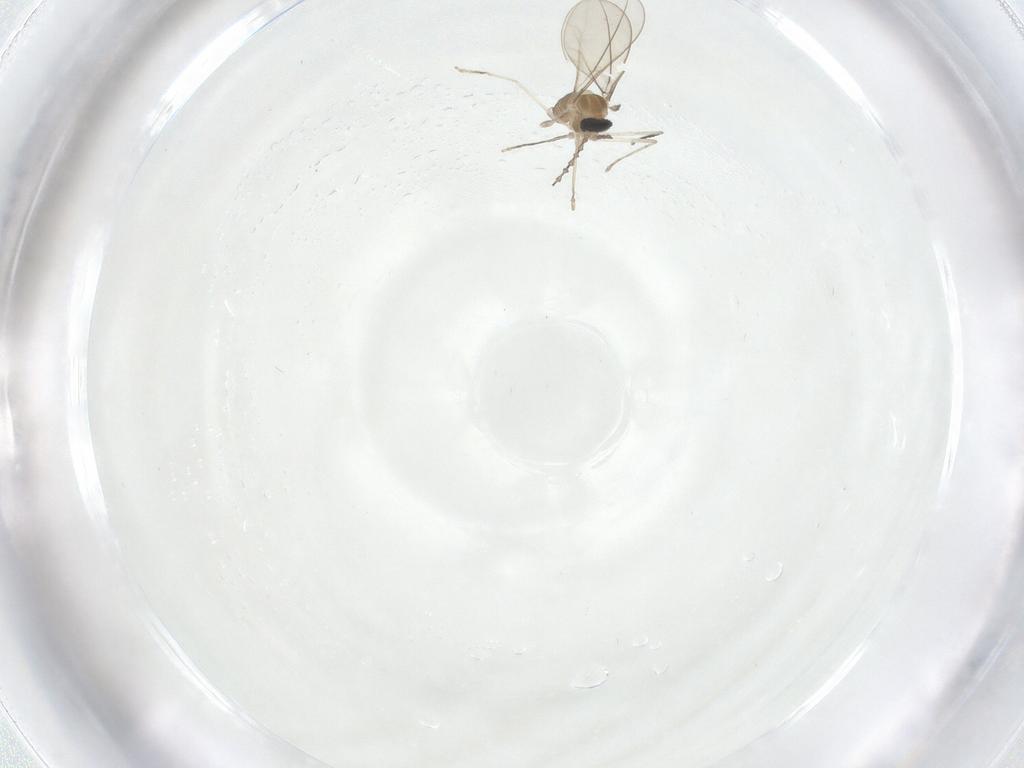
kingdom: Animalia
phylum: Arthropoda
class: Insecta
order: Diptera
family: Cecidomyiidae
